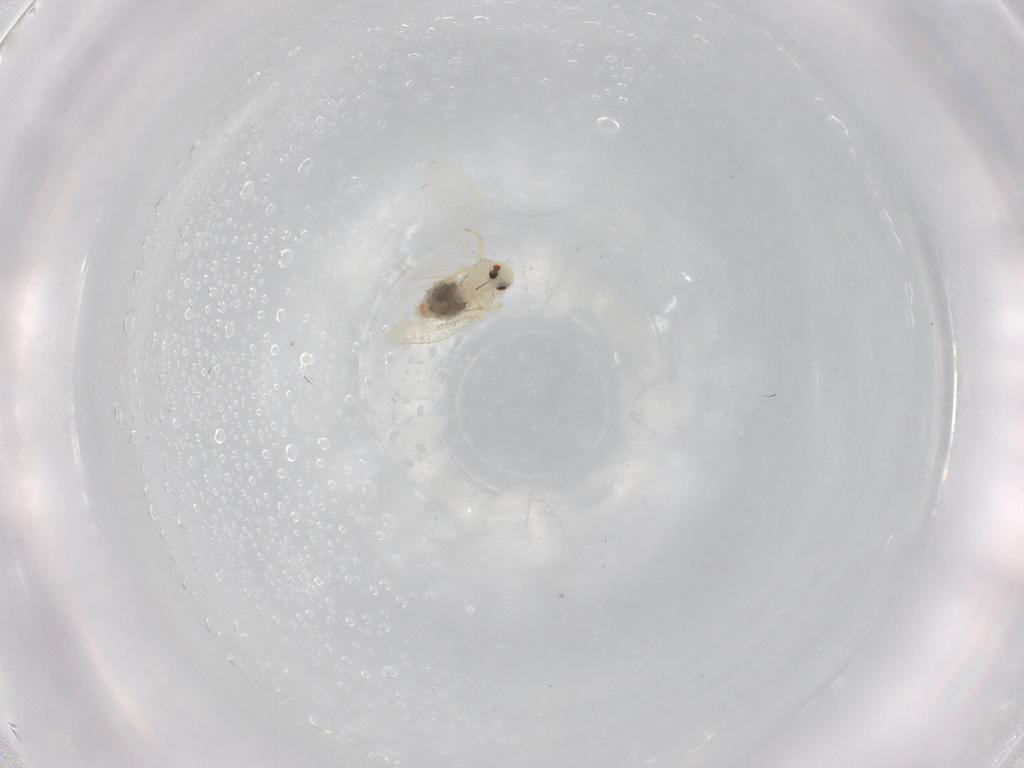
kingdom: Animalia
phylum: Arthropoda
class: Insecta
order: Hemiptera
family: Aleyrodidae
